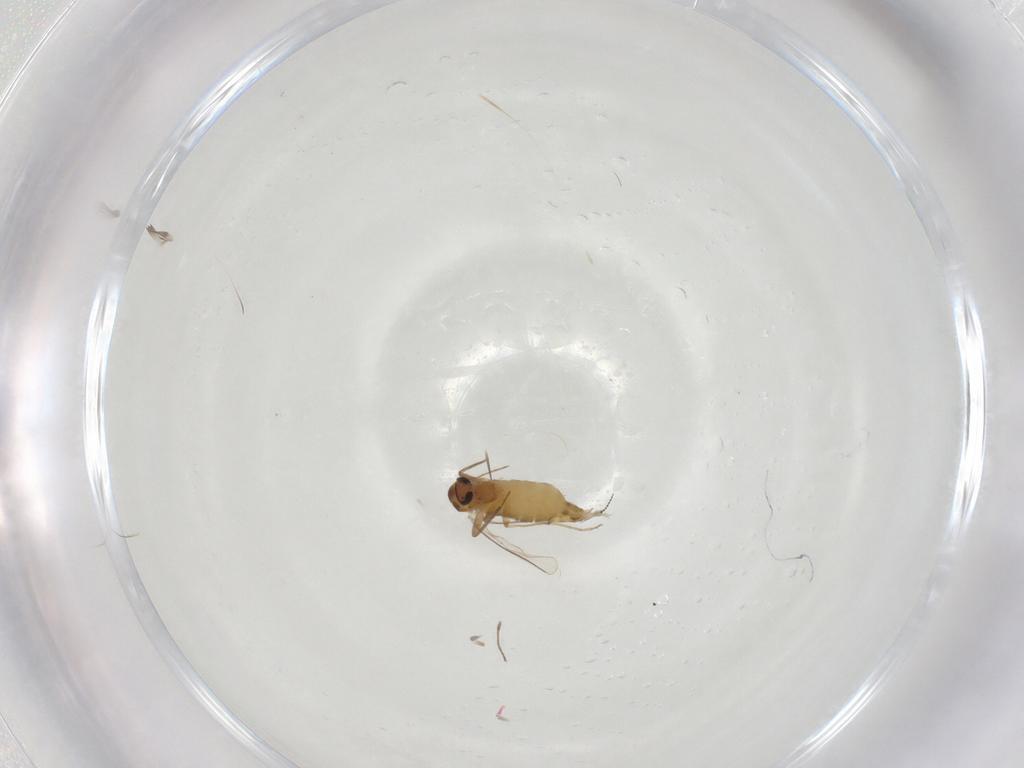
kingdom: Animalia
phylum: Arthropoda
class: Insecta
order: Diptera
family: Chironomidae
